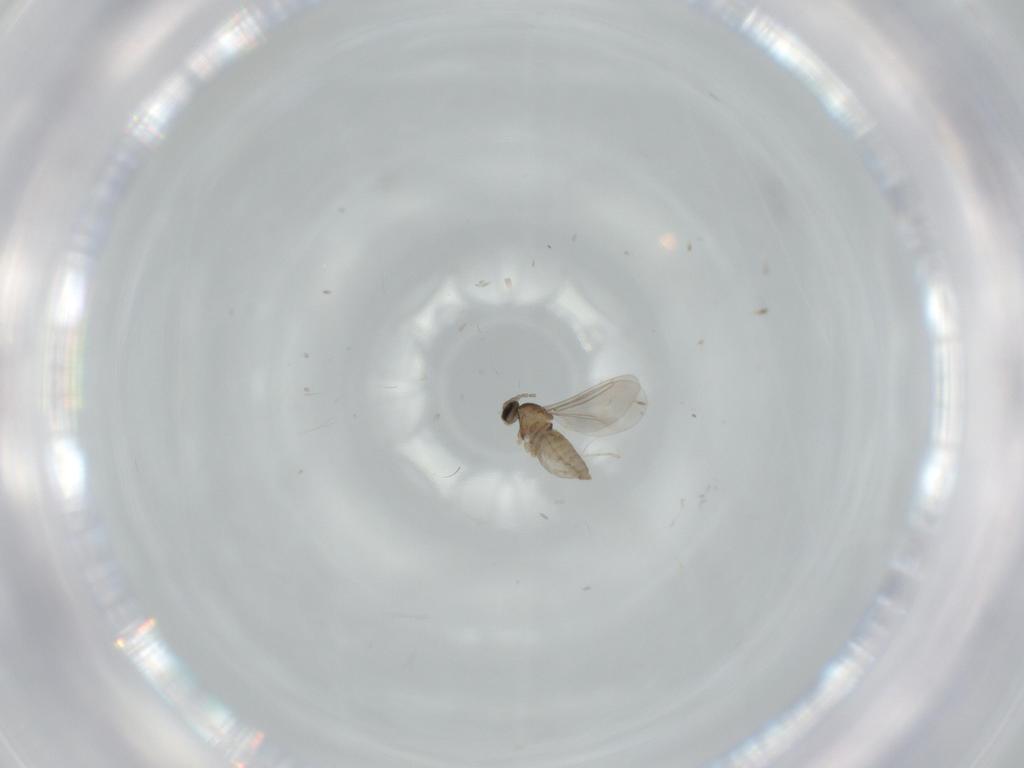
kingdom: Animalia
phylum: Arthropoda
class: Insecta
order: Diptera
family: Cecidomyiidae
